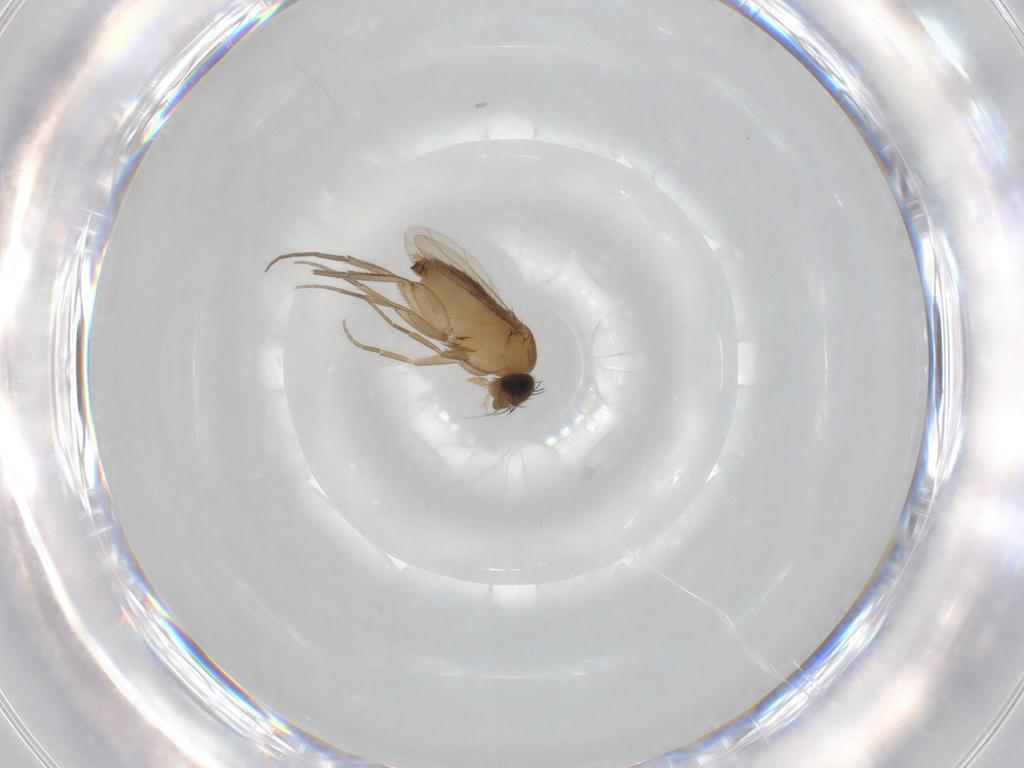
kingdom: Animalia
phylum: Arthropoda
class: Insecta
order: Diptera
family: Phoridae
